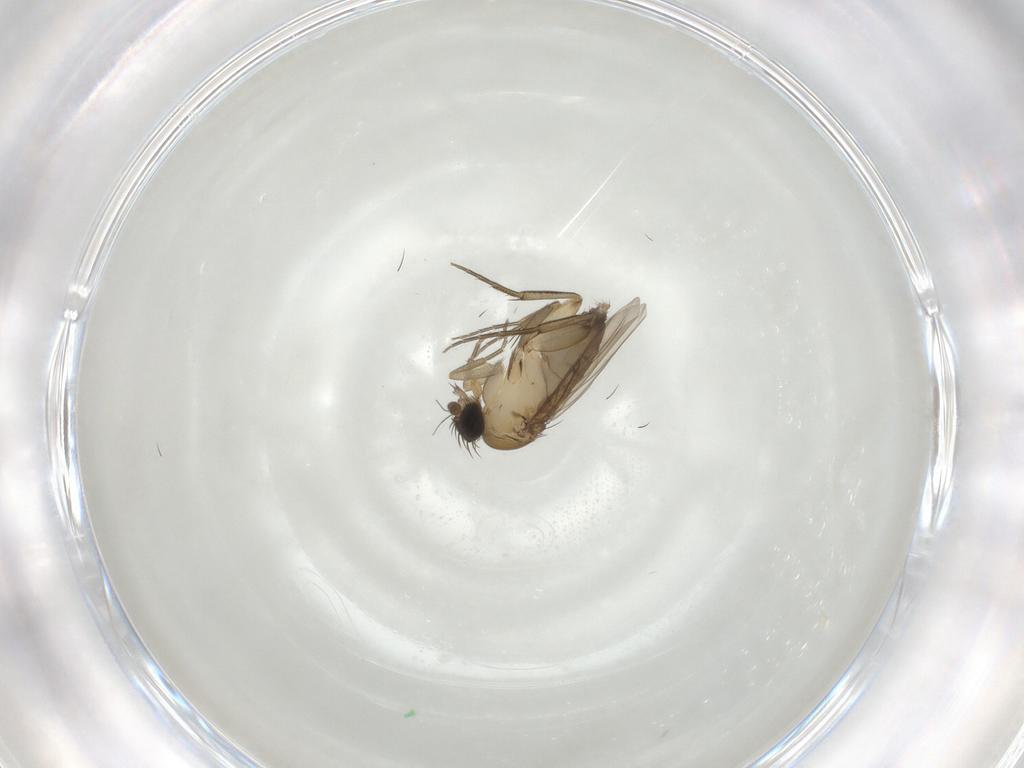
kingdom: Animalia
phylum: Arthropoda
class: Insecta
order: Diptera
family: Phoridae
